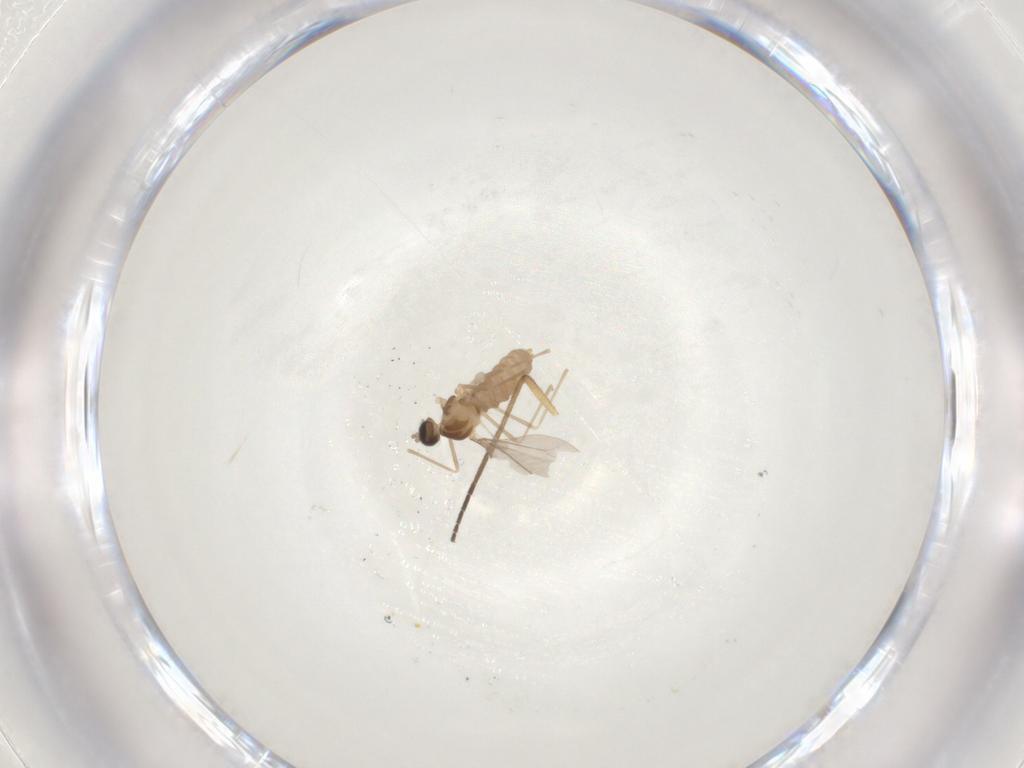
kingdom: Animalia
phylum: Arthropoda
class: Insecta
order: Diptera
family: Cecidomyiidae
